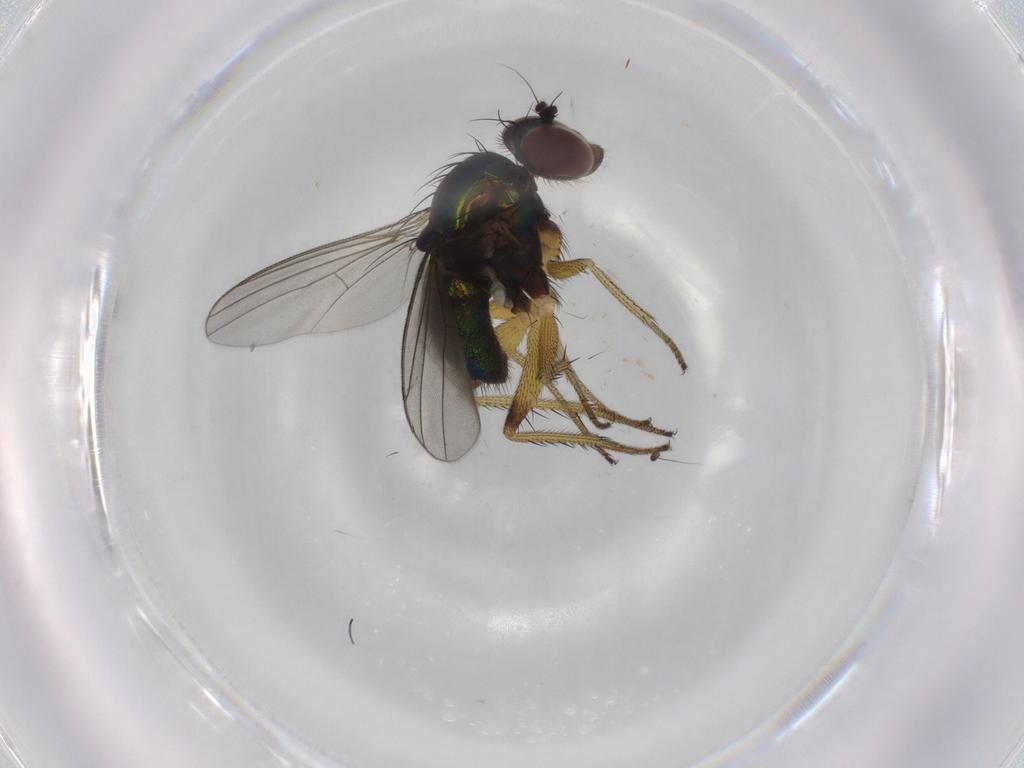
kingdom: Animalia
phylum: Arthropoda
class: Insecta
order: Diptera
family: Dolichopodidae
